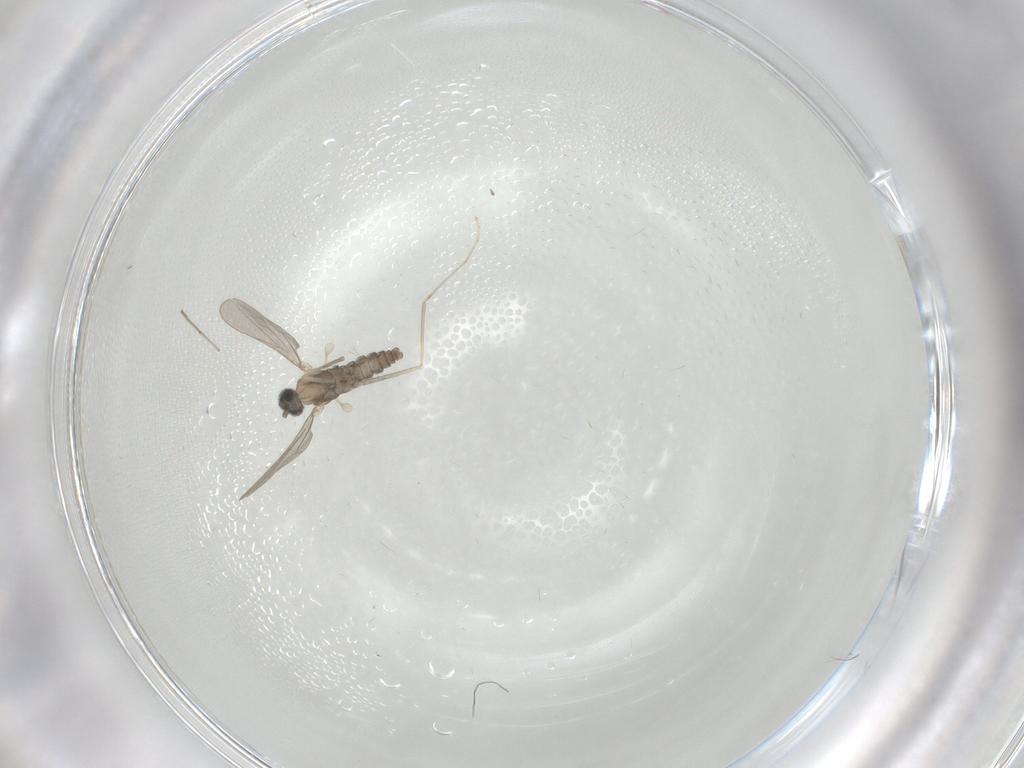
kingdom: Animalia
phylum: Arthropoda
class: Insecta
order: Diptera
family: Cecidomyiidae
